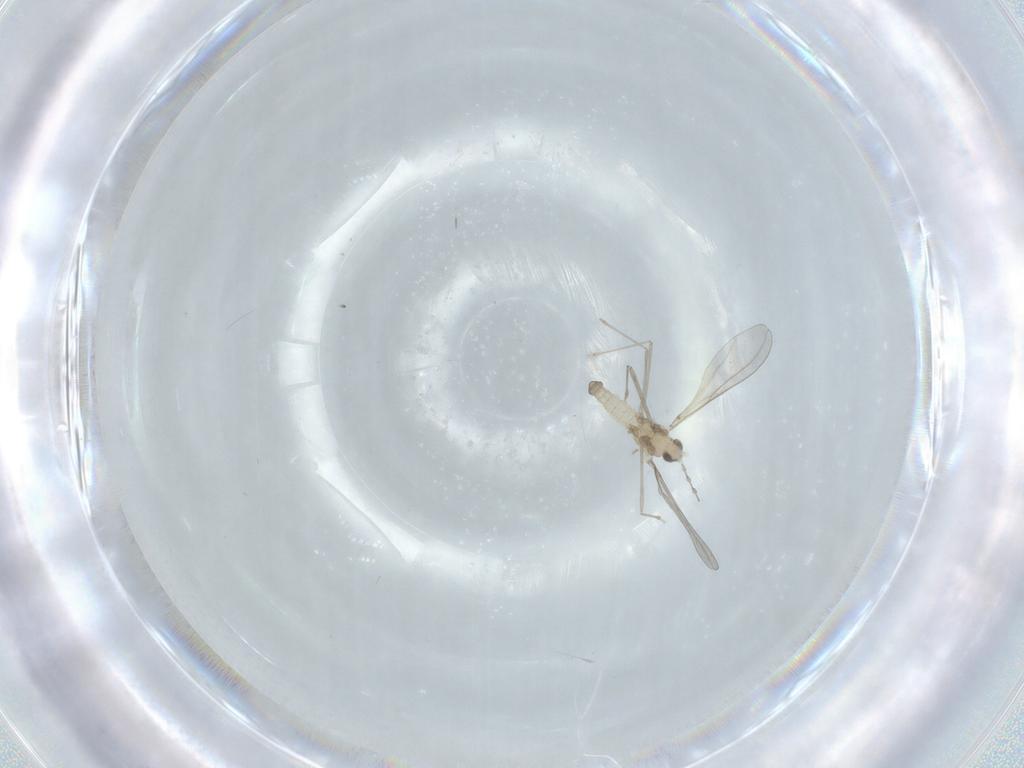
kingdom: Animalia
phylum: Arthropoda
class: Insecta
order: Diptera
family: Cecidomyiidae
